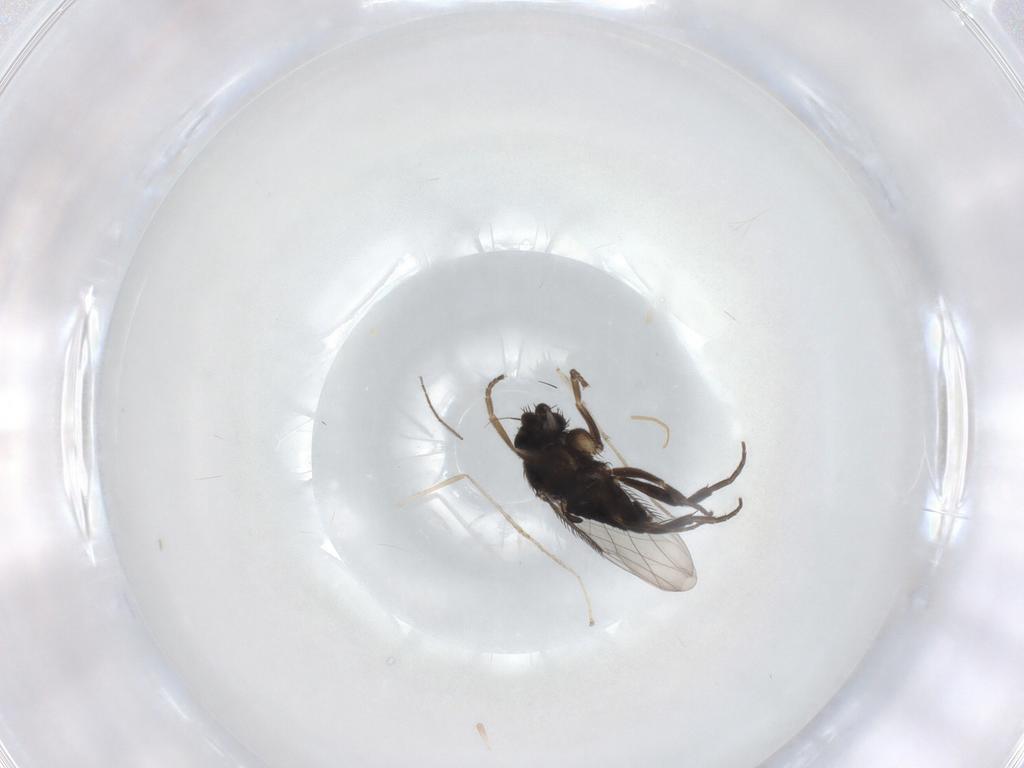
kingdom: Animalia
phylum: Arthropoda
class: Insecta
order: Diptera
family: Phoridae
